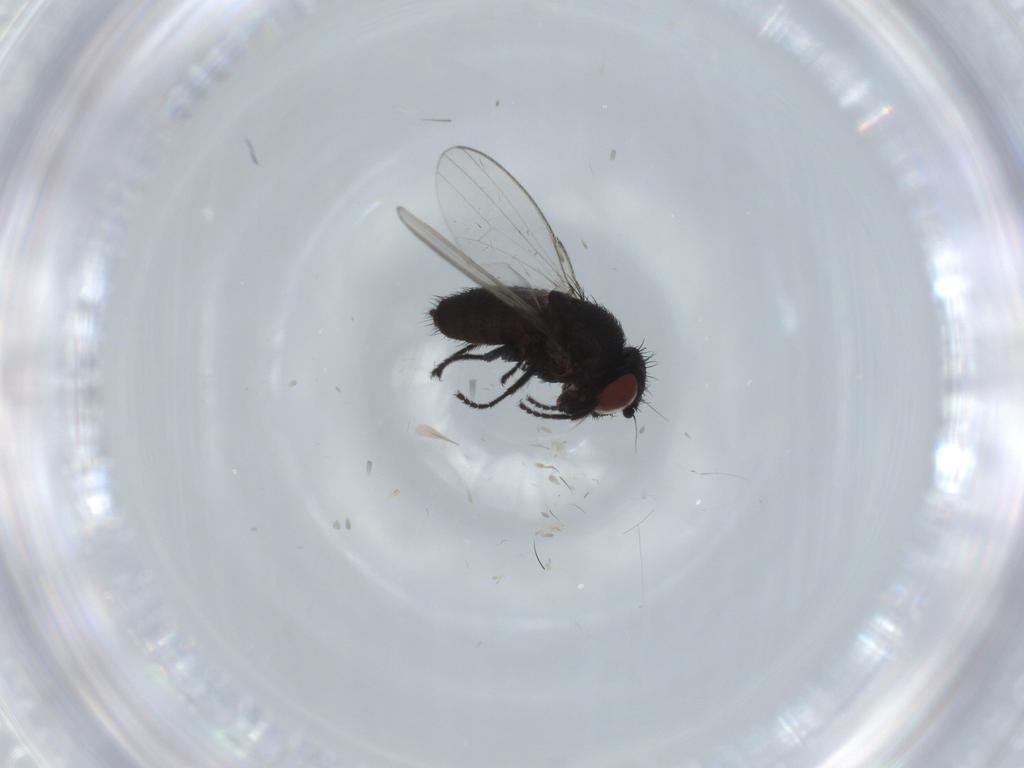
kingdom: Animalia
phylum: Arthropoda
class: Insecta
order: Diptera
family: Milichiidae
